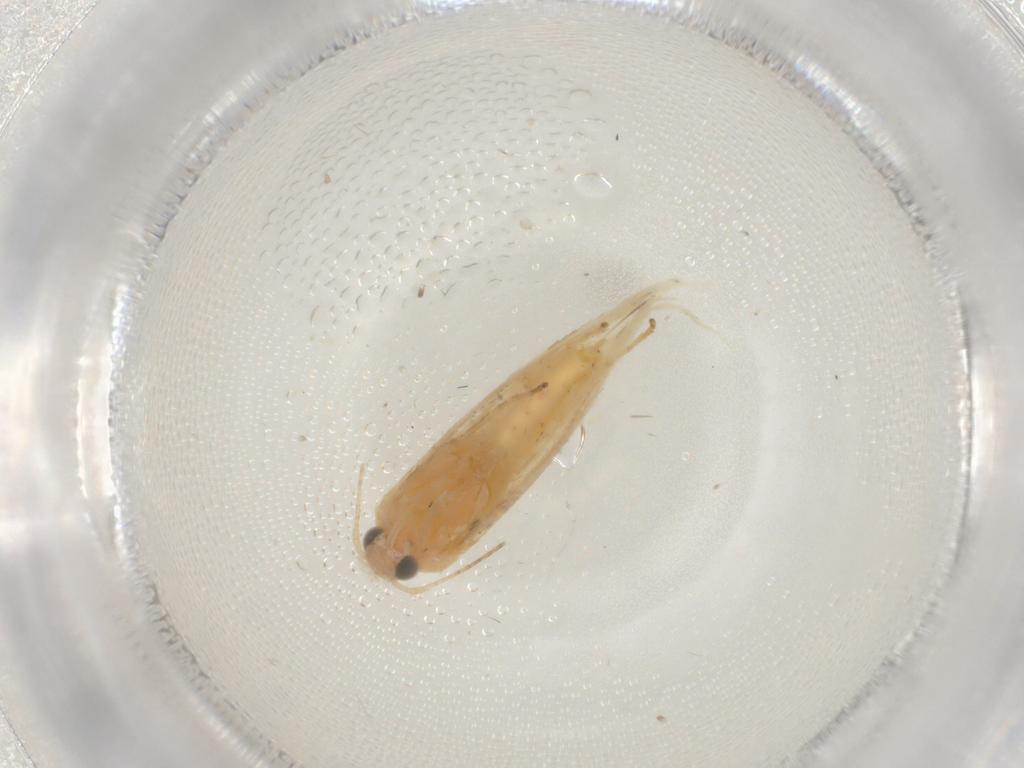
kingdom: Animalia
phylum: Arthropoda
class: Insecta
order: Lepidoptera
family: Argyresthiidae
